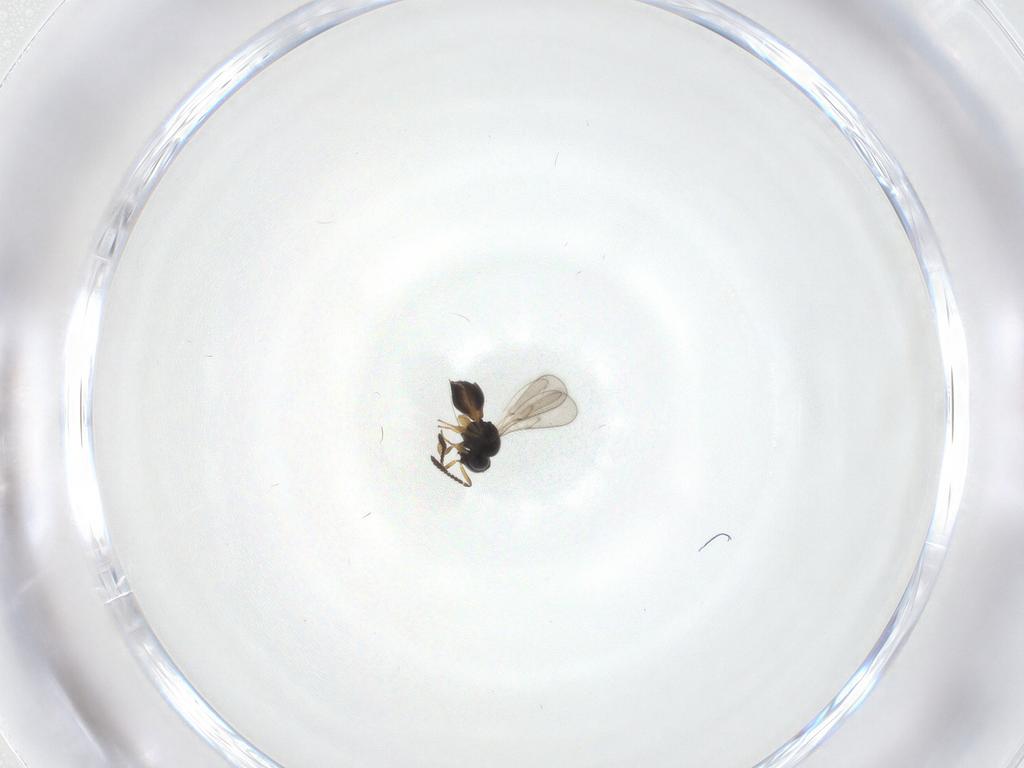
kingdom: Animalia
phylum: Arthropoda
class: Insecta
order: Hymenoptera
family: Scelionidae
